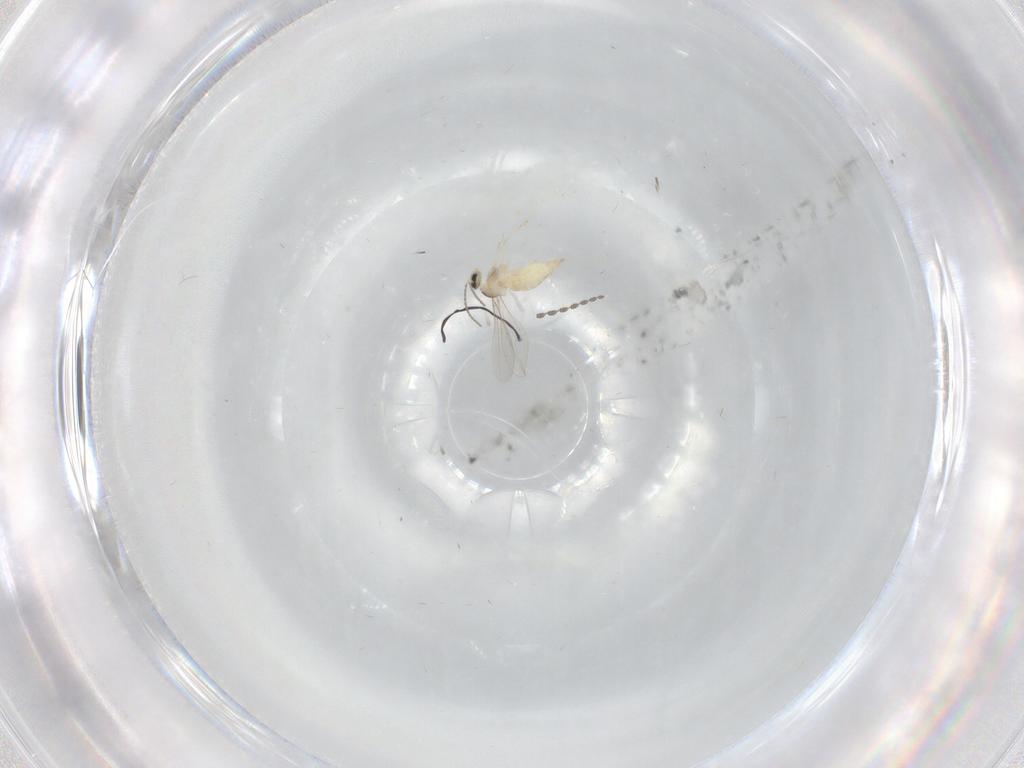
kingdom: Animalia
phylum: Arthropoda
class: Insecta
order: Diptera
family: Cecidomyiidae
